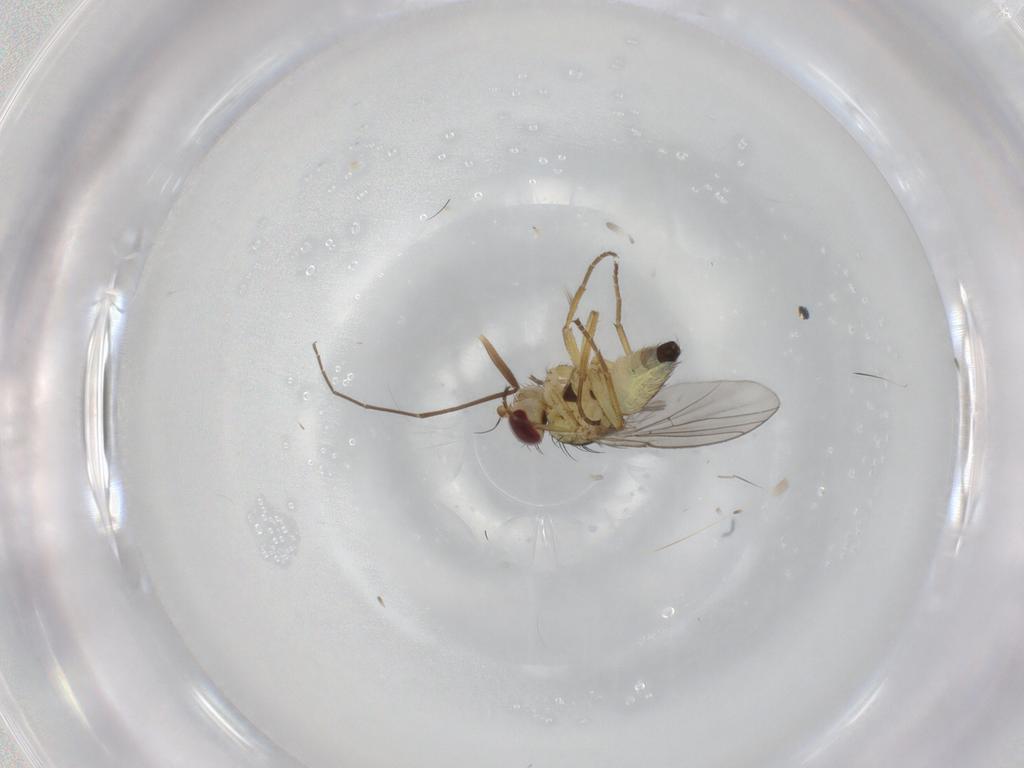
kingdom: Animalia
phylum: Arthropoda
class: Insecta
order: Diptera
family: Agromyzidae
